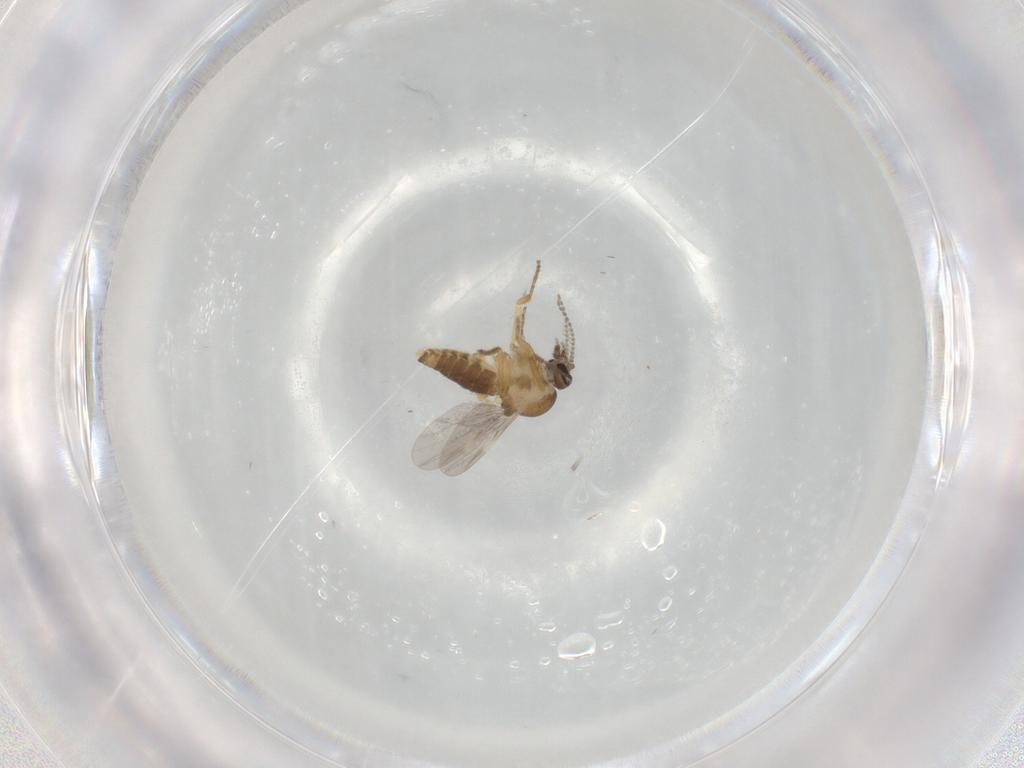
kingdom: Animalia
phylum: Arthropoda
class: Insecta
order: Diptera
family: Ceratopogonidae
